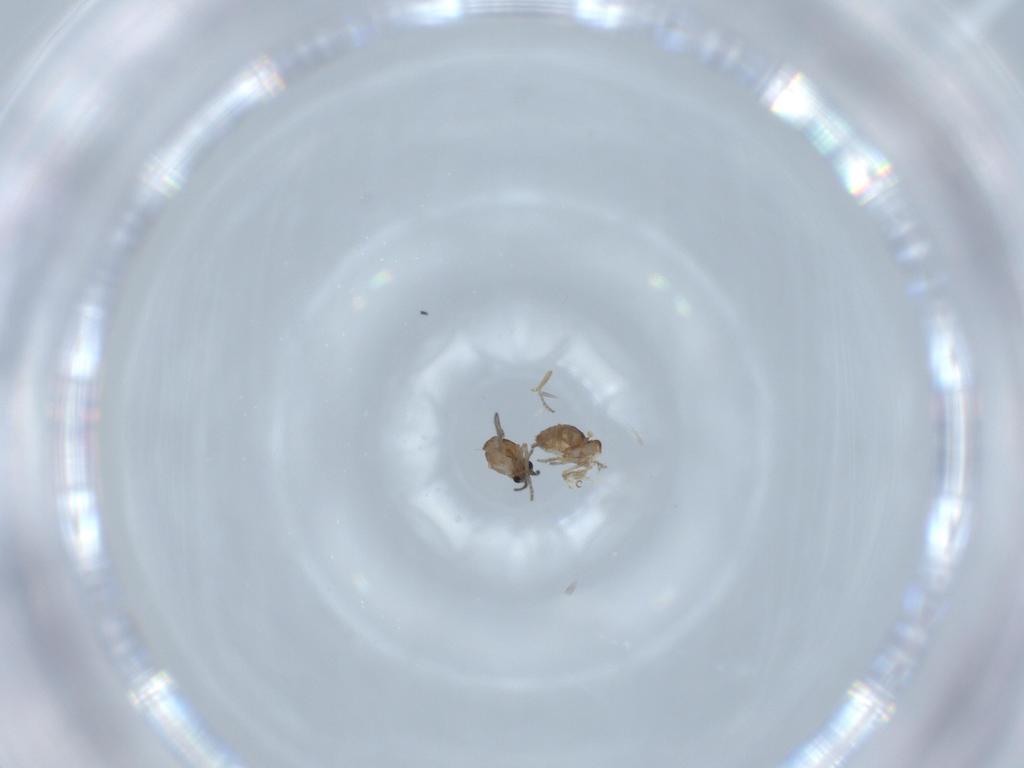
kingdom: Animalia
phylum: Arthropoda
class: Insecta
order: Diptera
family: Ceratopogonidae
